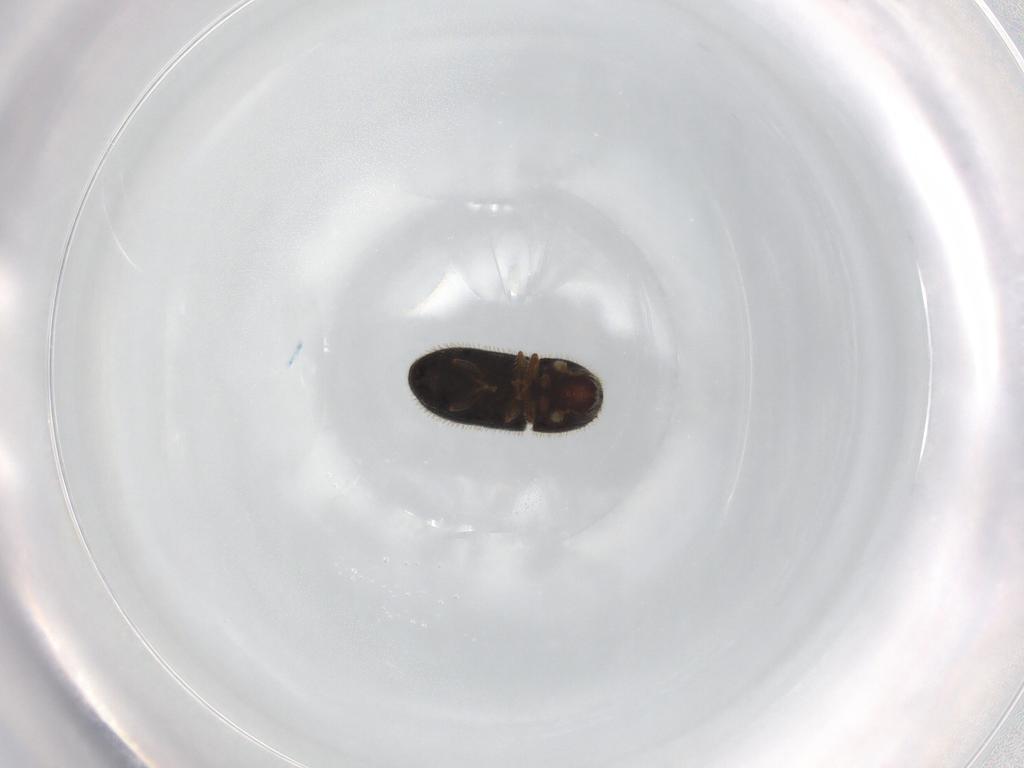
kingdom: Animalia
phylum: Arthropoda
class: Insecta
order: Coleoptera
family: Curculionidae
